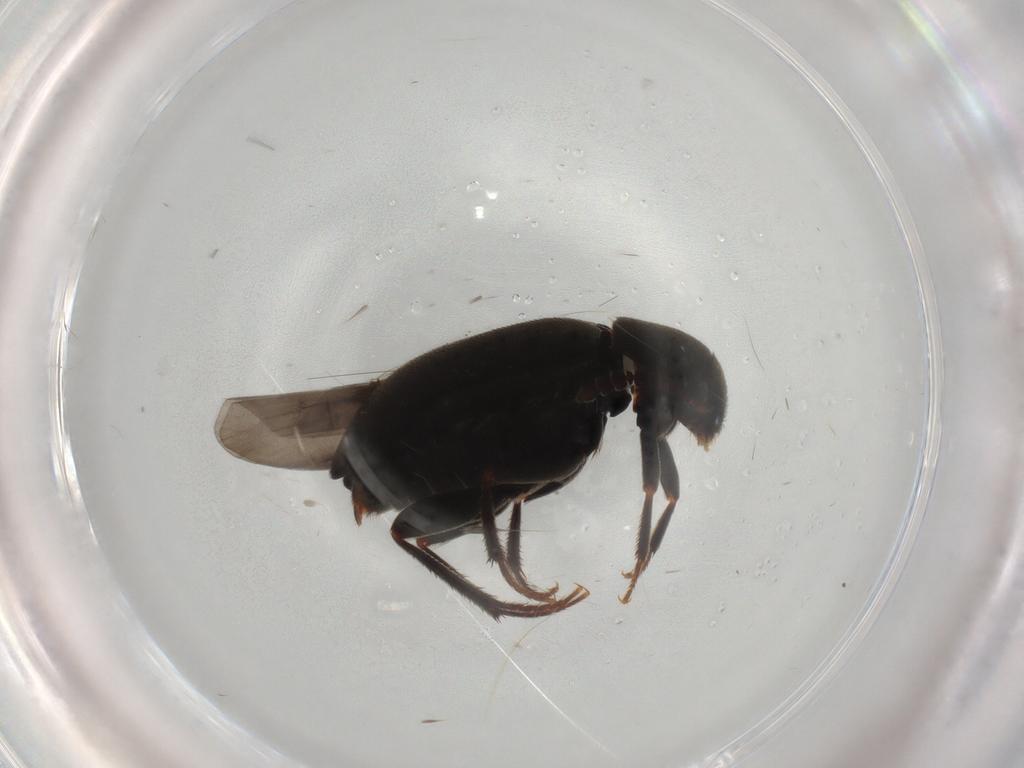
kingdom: Animalia
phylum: Arthropoda
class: Insecta
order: Coleoptera
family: Leiodidae
